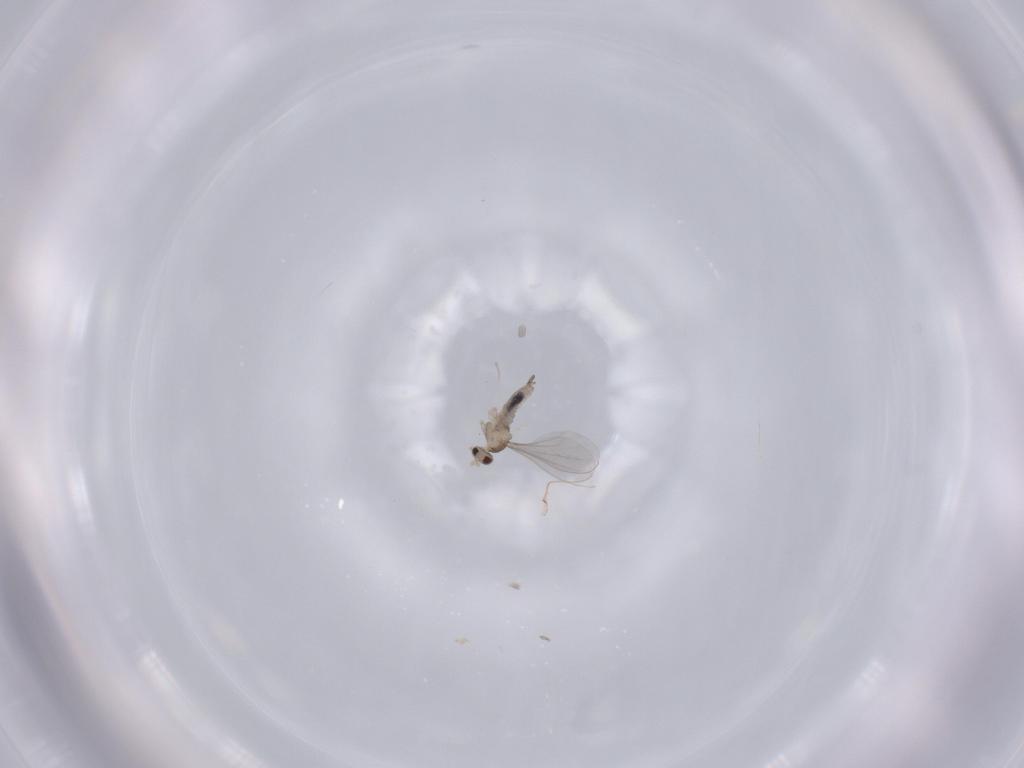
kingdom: Animalia
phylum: Arthropoda
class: Insecta
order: Diptera
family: Cecidomyiidae
